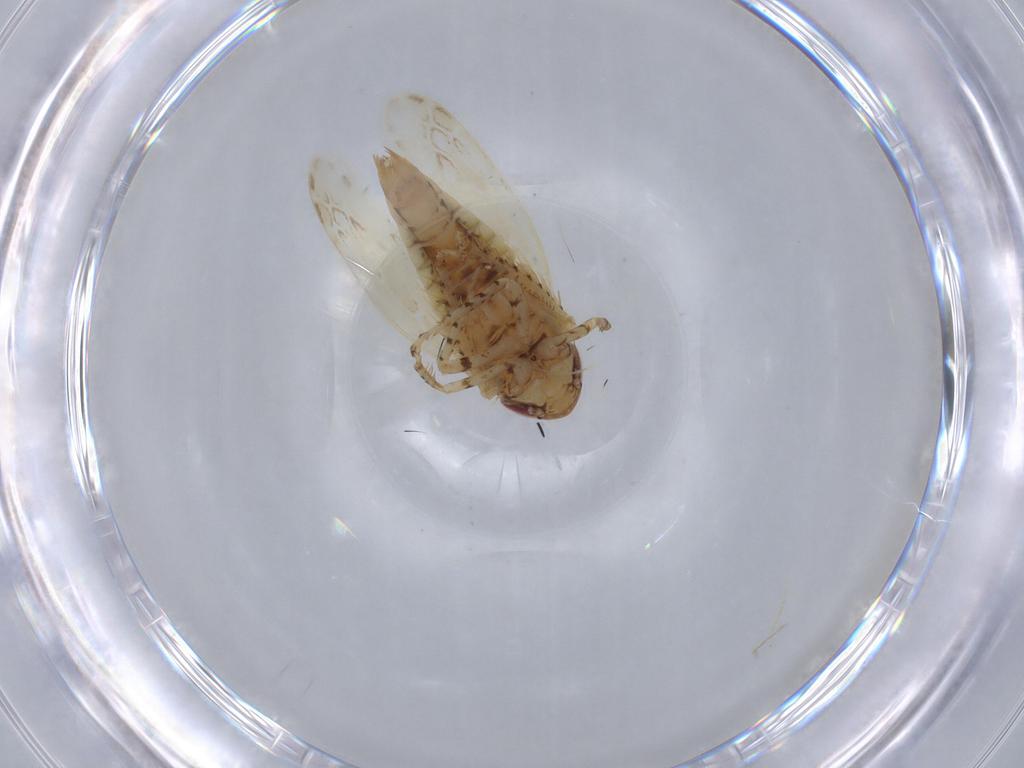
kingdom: Animalia
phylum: Arthropoda
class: Insecta
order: Hemiptera
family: Cicadellidae
